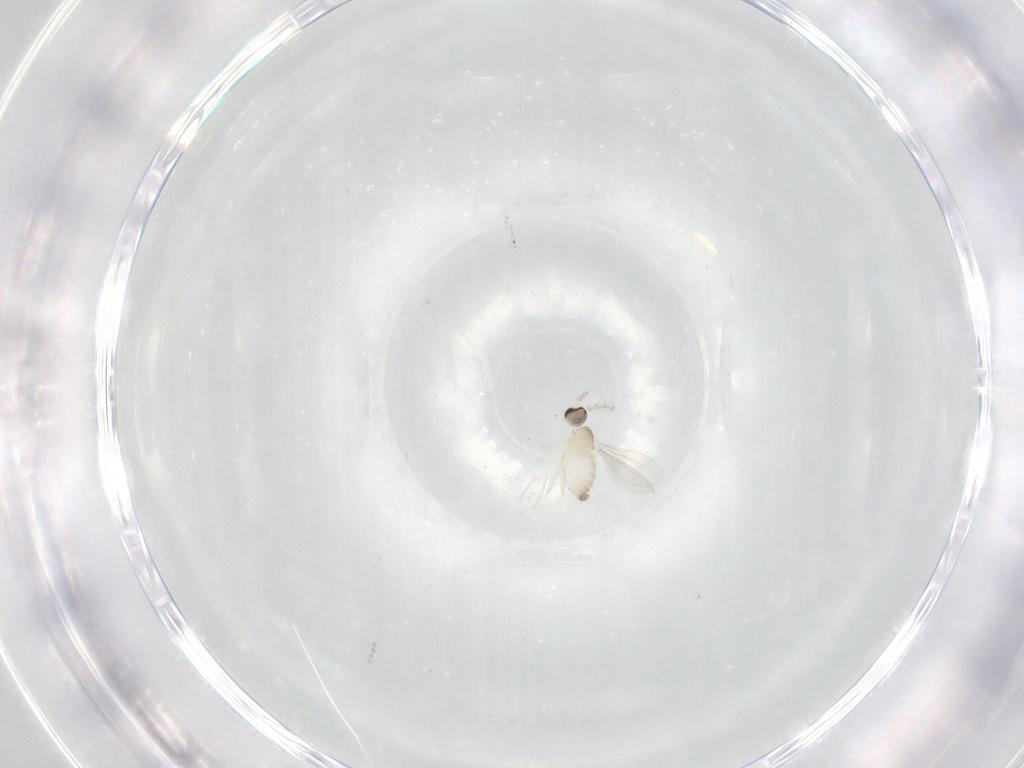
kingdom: Animalia
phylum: Arthropoda
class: Insecta
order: Diptera
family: Cecidomyiidae
